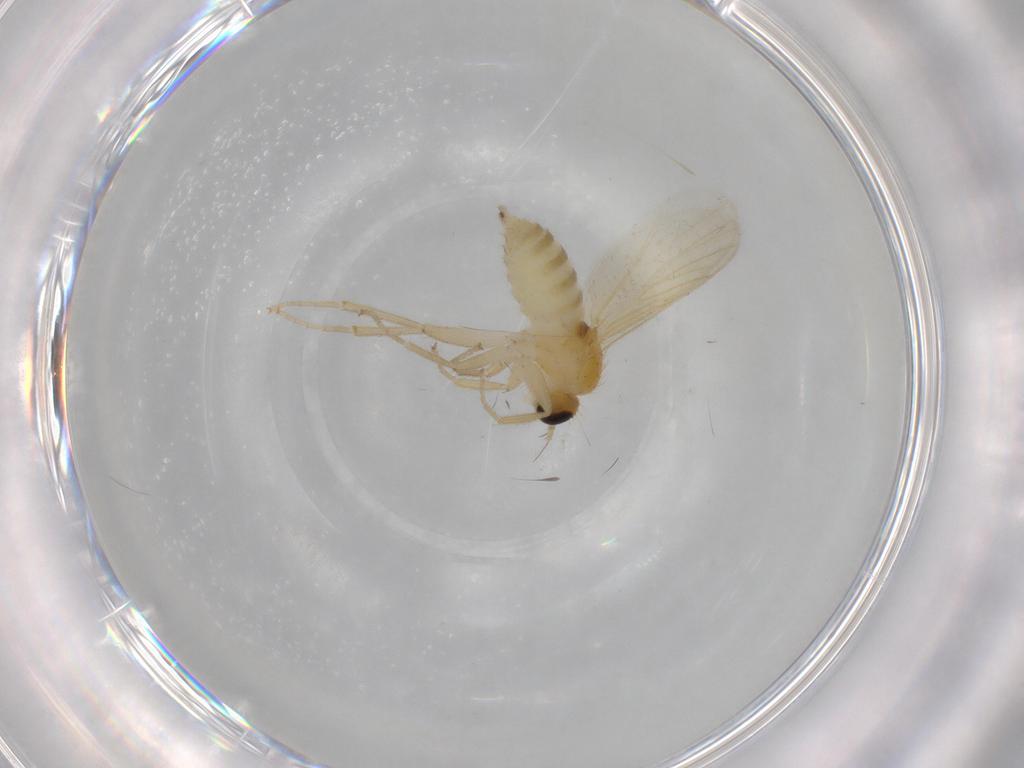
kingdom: Animalia
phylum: Arthropoda
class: Insecta
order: Diptera
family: Hybotidae
